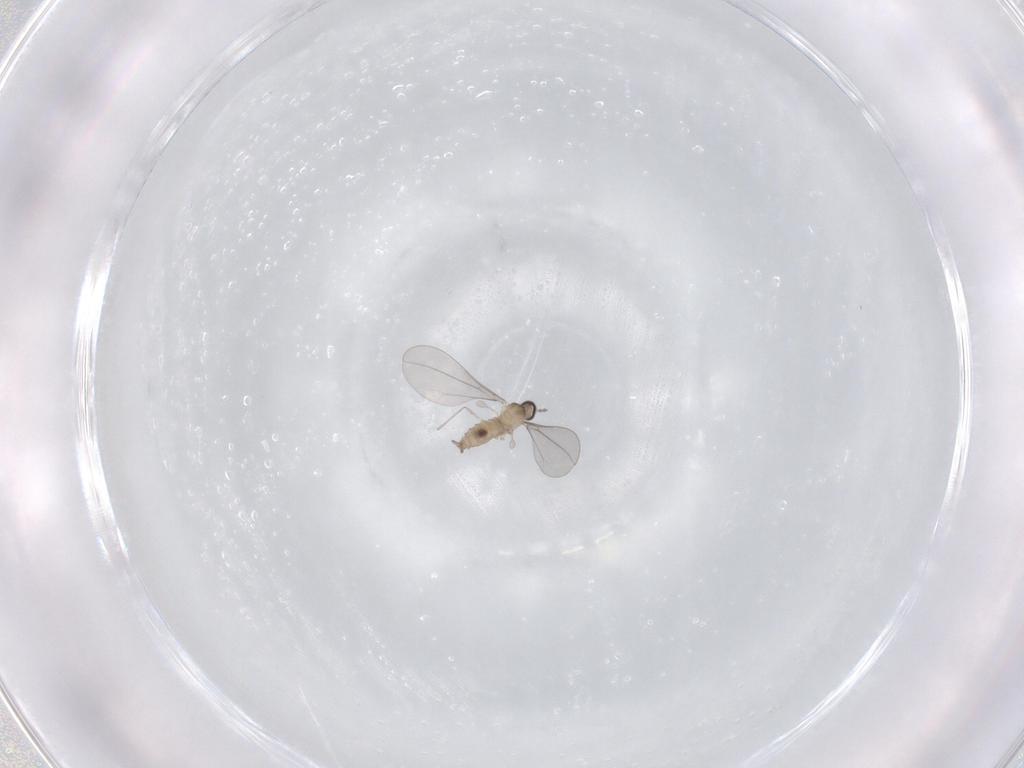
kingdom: Animalia
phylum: Arthropoda
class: Insecta
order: Diptera
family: Cecidomyiidae
